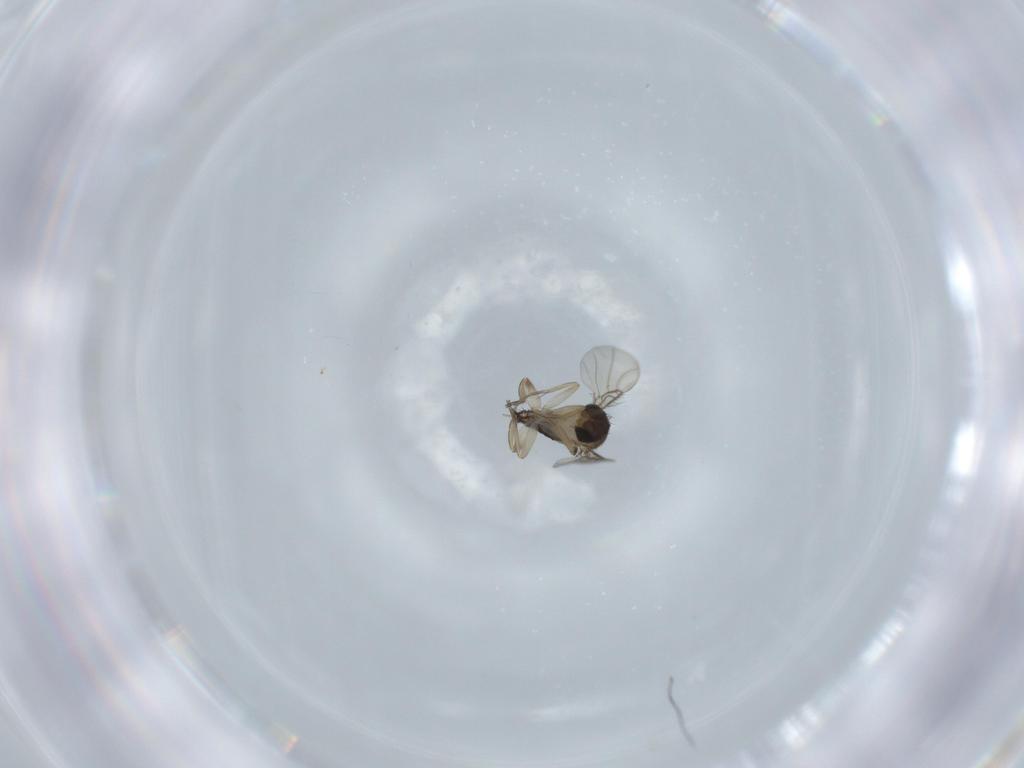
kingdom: Animalia
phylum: Arthropoda
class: Insecta
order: Diptera
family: Phoridae
